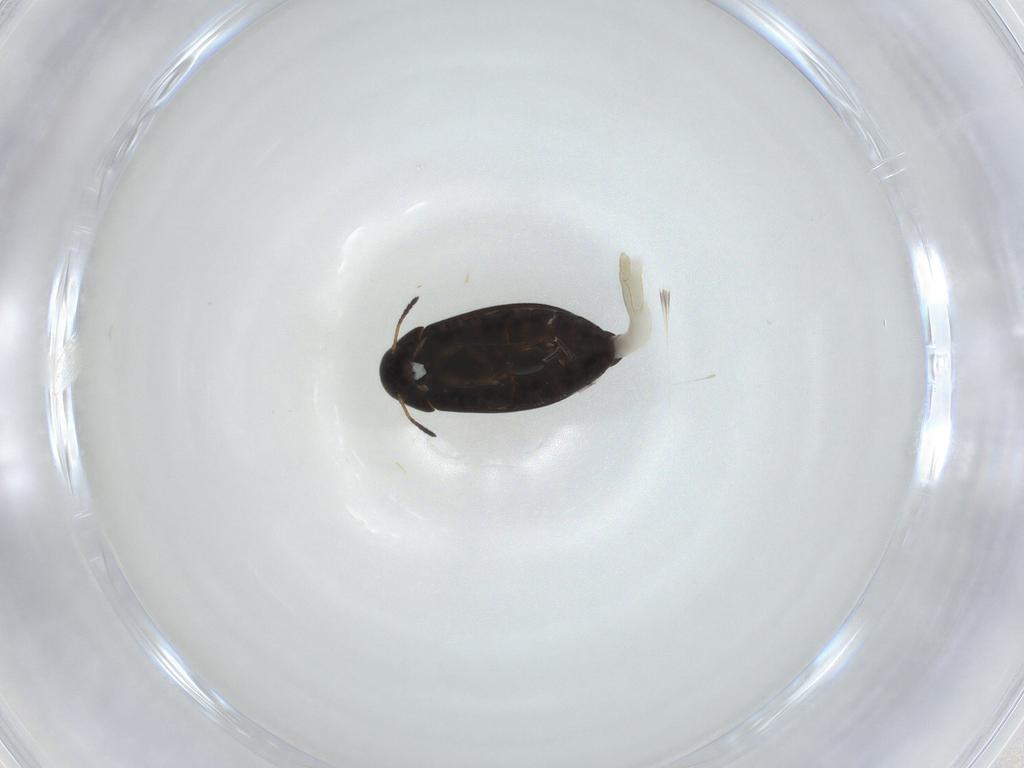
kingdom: Animalia
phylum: Arthropoda
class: Insecta
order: Coleoptera
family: Scraptiidae
